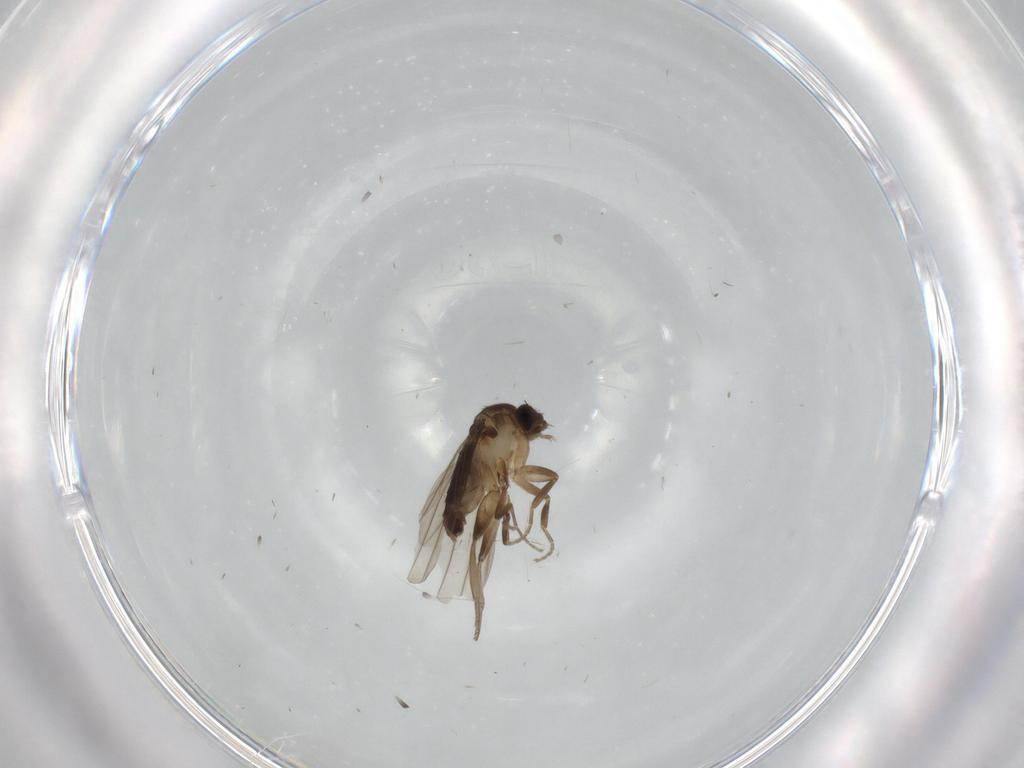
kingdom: Animalia
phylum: Arthropoda
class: Insecta
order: Diptera
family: Phoridae
